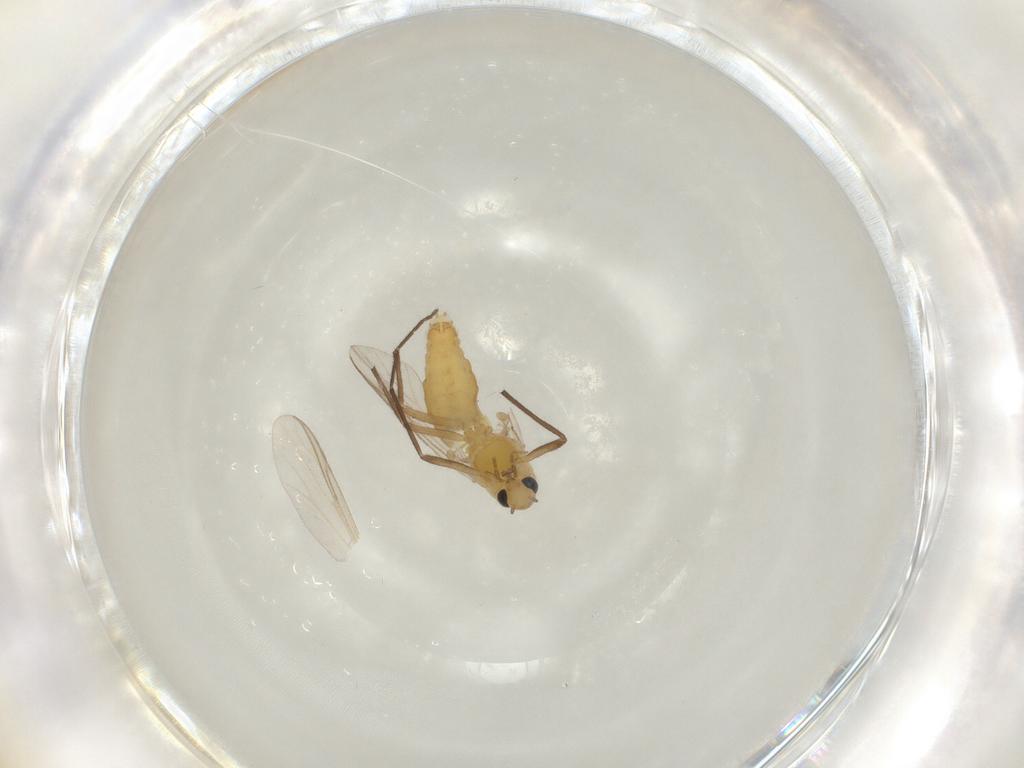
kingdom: Animalia
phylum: Arthropoda
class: Insecta
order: Diptera
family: Chironomidae
